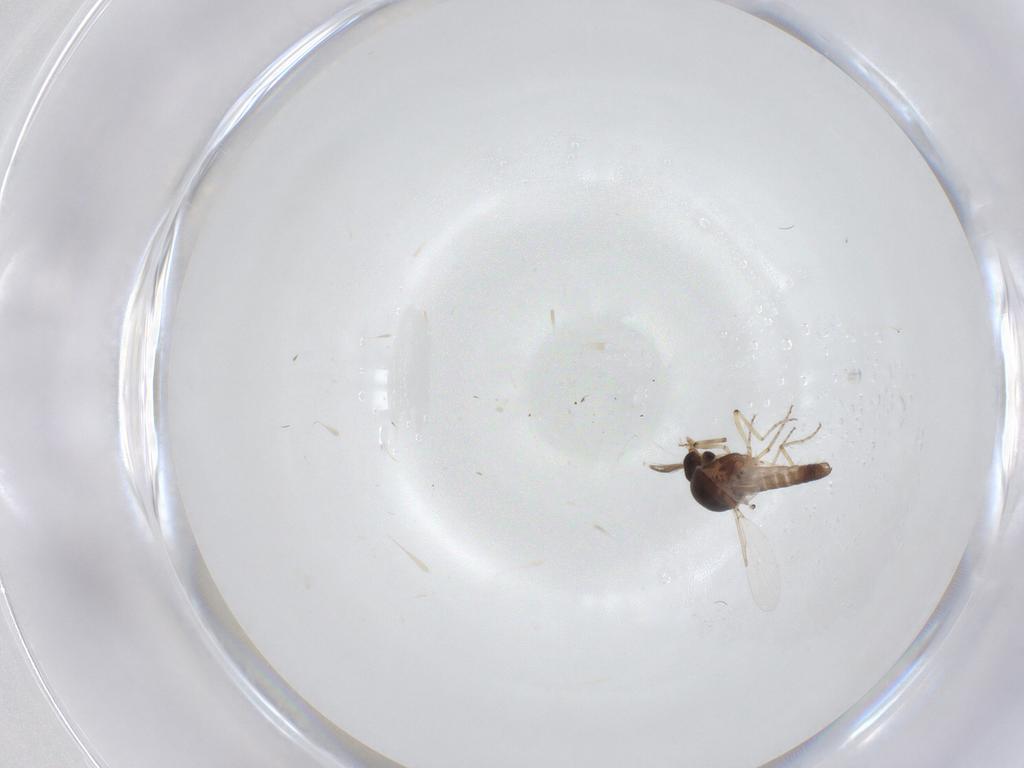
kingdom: Animalia
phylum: Arthropoda
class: Insecta
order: Diptera
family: Ceratopogonidae
